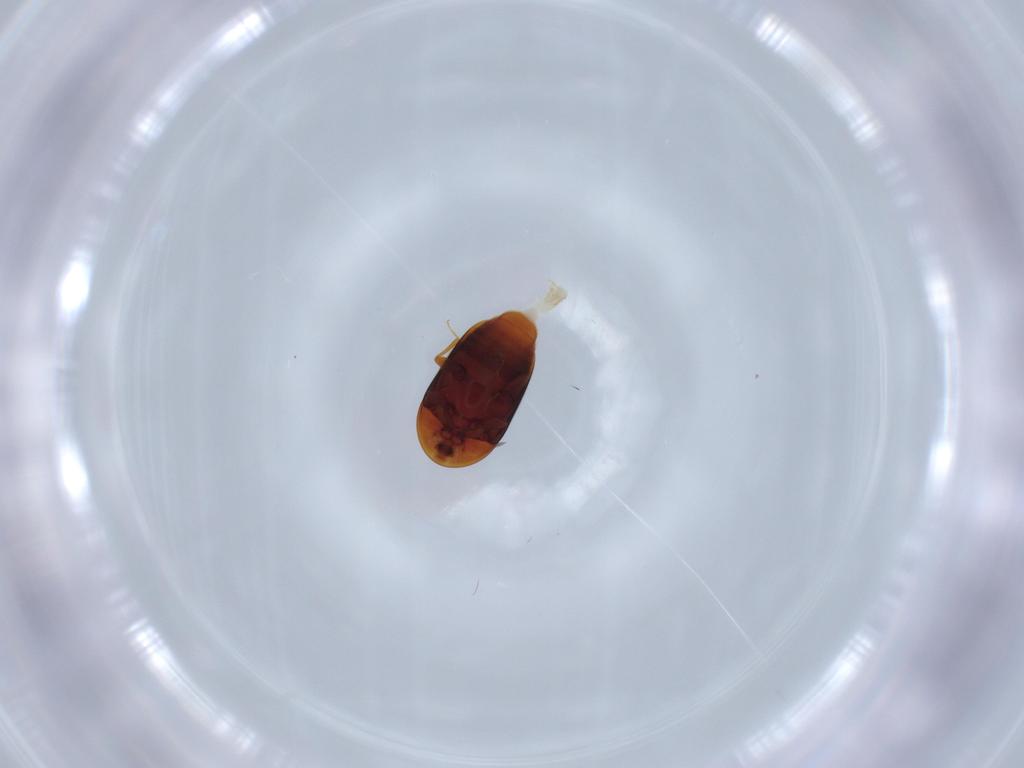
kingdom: Animalia
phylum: Arthropoda
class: Insecta
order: Coleoptera
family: Corylophidae
